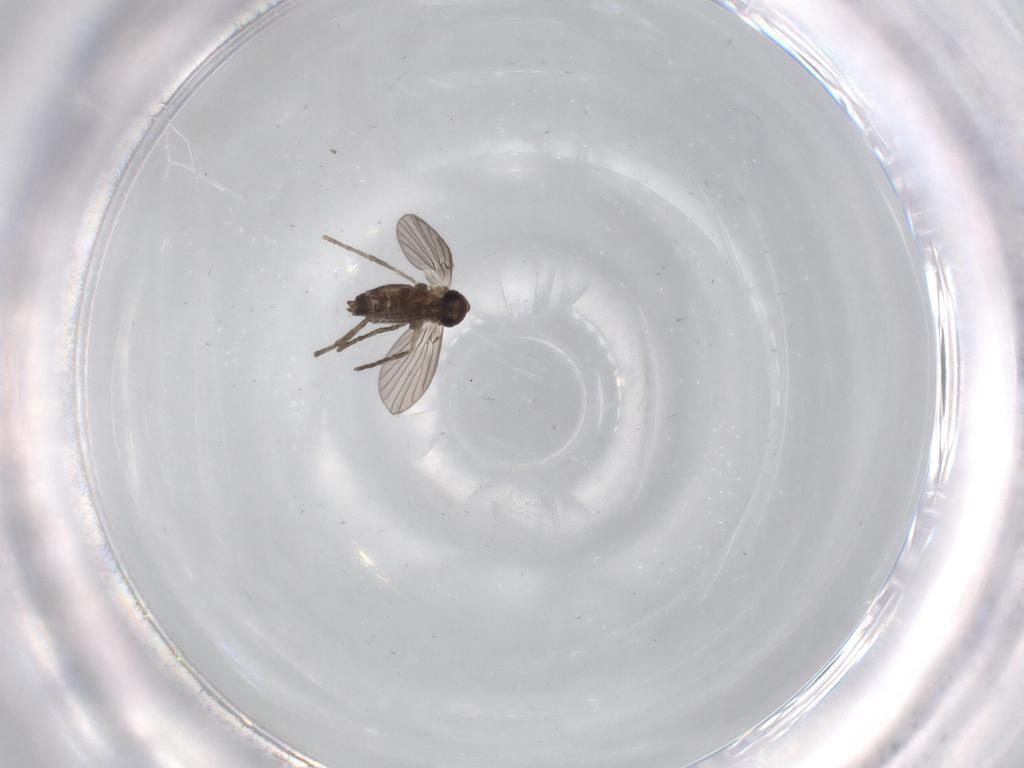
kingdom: Animalia
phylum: Arthropoda
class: Insecta
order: Diptera
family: Cecidomyiidae
